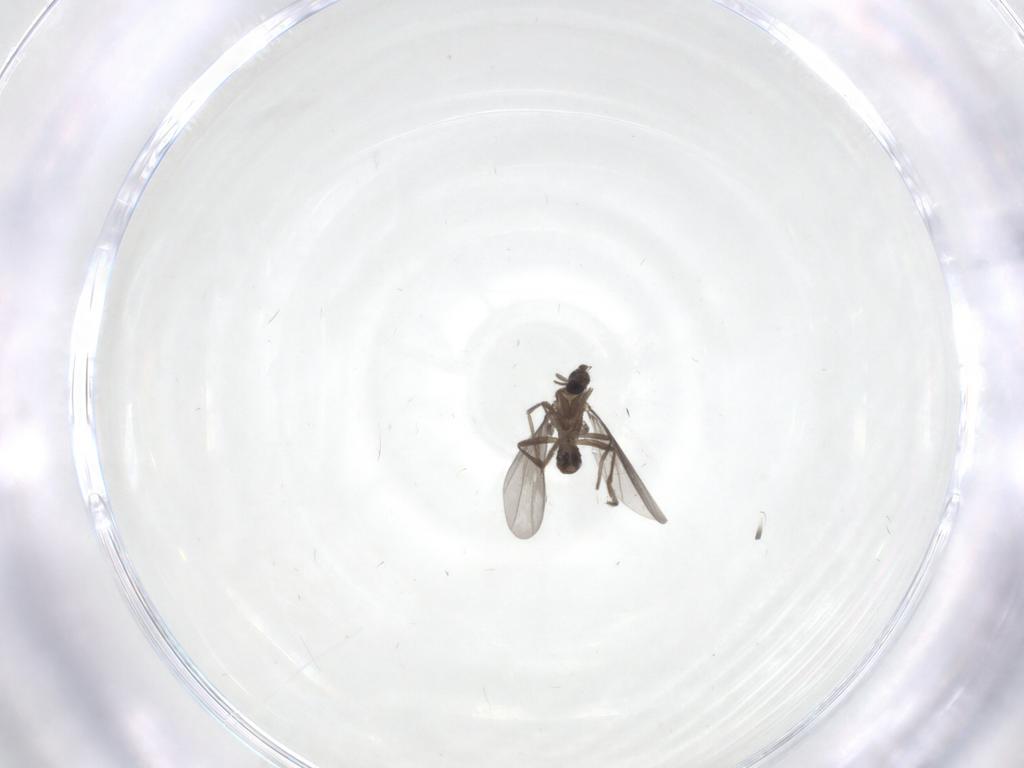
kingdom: Animalia
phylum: Arthropoda
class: Insecta
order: Diptera
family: Phoridae
